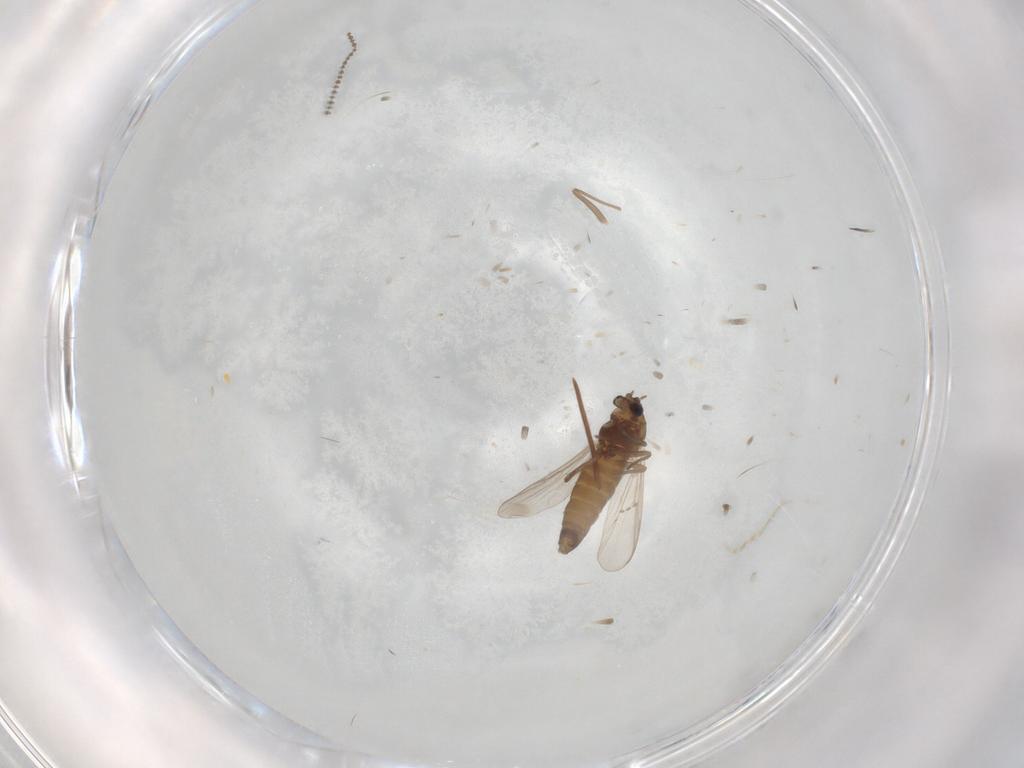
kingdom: Animalia
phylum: Arthropoda
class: Insecta
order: Diptera
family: Chironomidae
